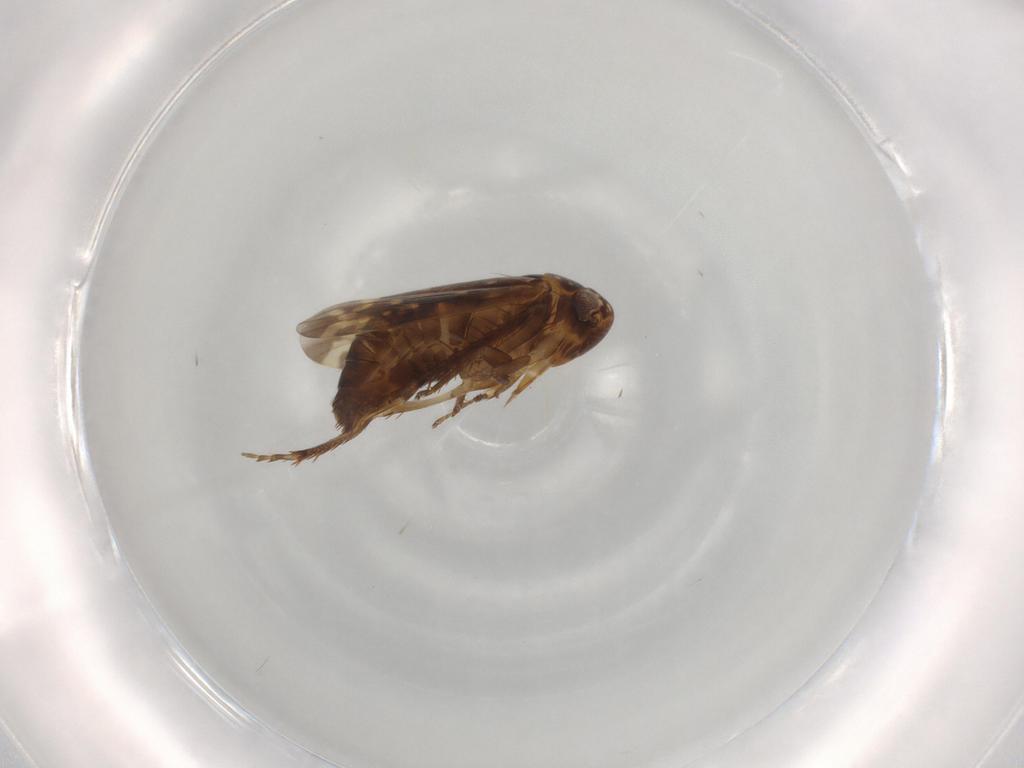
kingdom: Animalia
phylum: Arthropoda
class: Insecta
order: Hemiptera
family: Cicadellidae
